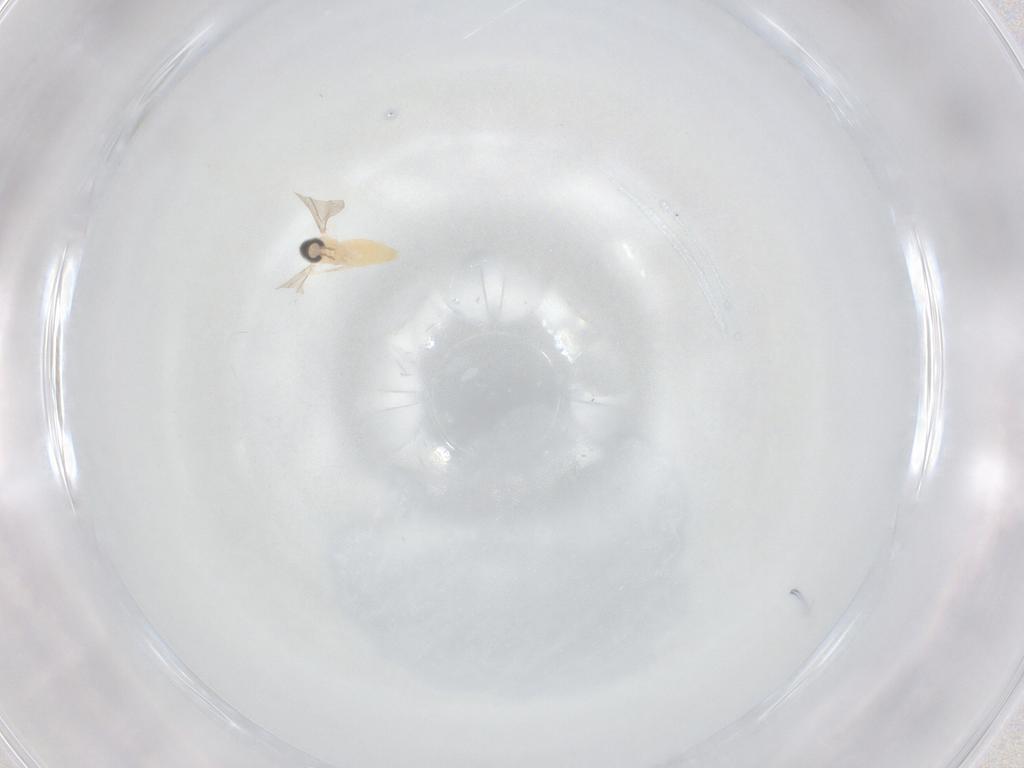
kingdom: Animalia
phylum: Arthropoda
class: Insecta
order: Diptera
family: Cecidomyiidae
